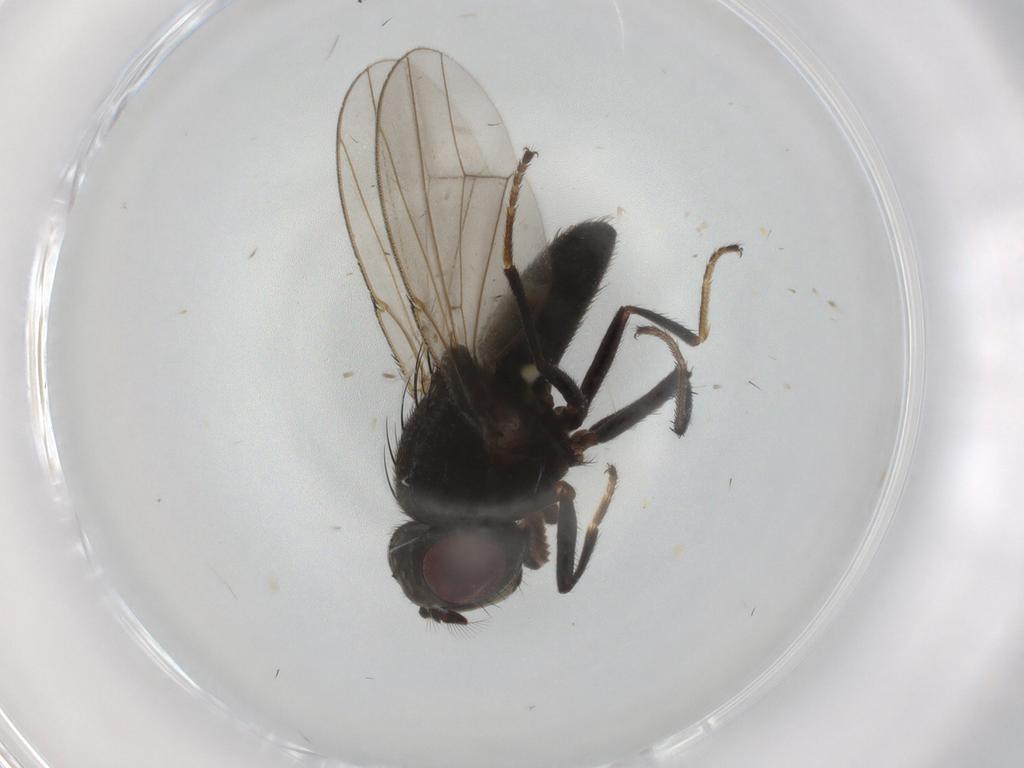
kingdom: Animalia
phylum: Arthropoda
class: Insecta
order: Diptera
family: Ephydridae
